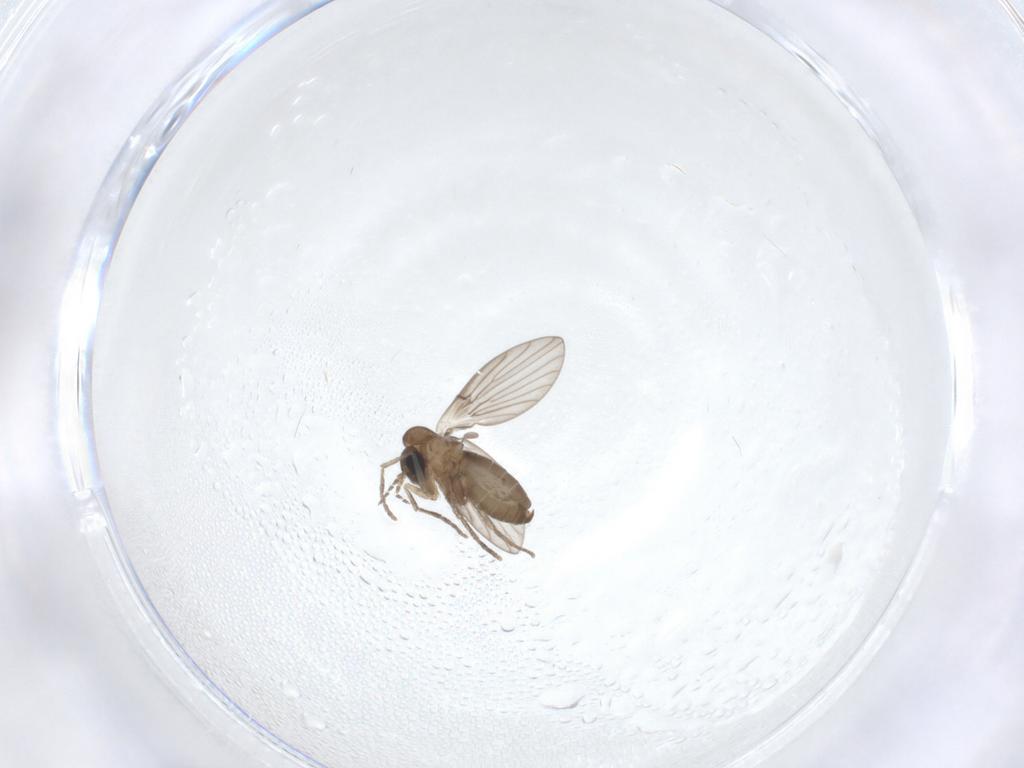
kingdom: Animalia
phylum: Arthropoda
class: Insecta
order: Diptera
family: Psychodidae
